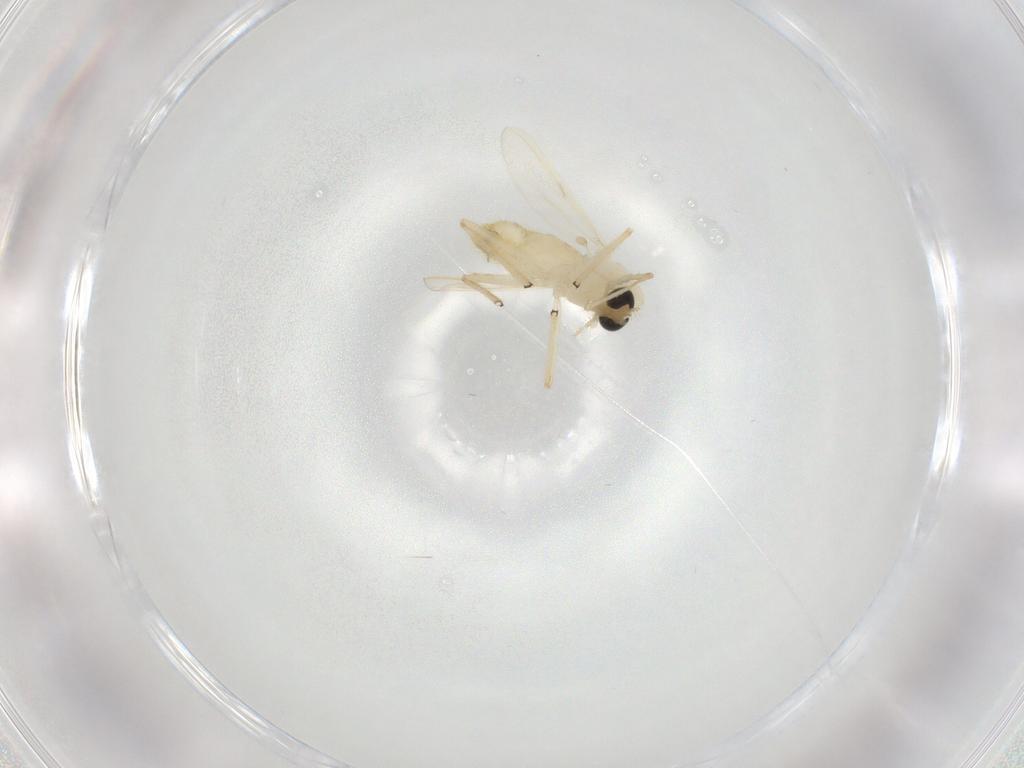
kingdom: Animalia
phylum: Arthropoda
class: Insecta
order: Diptera
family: Chironomidae
